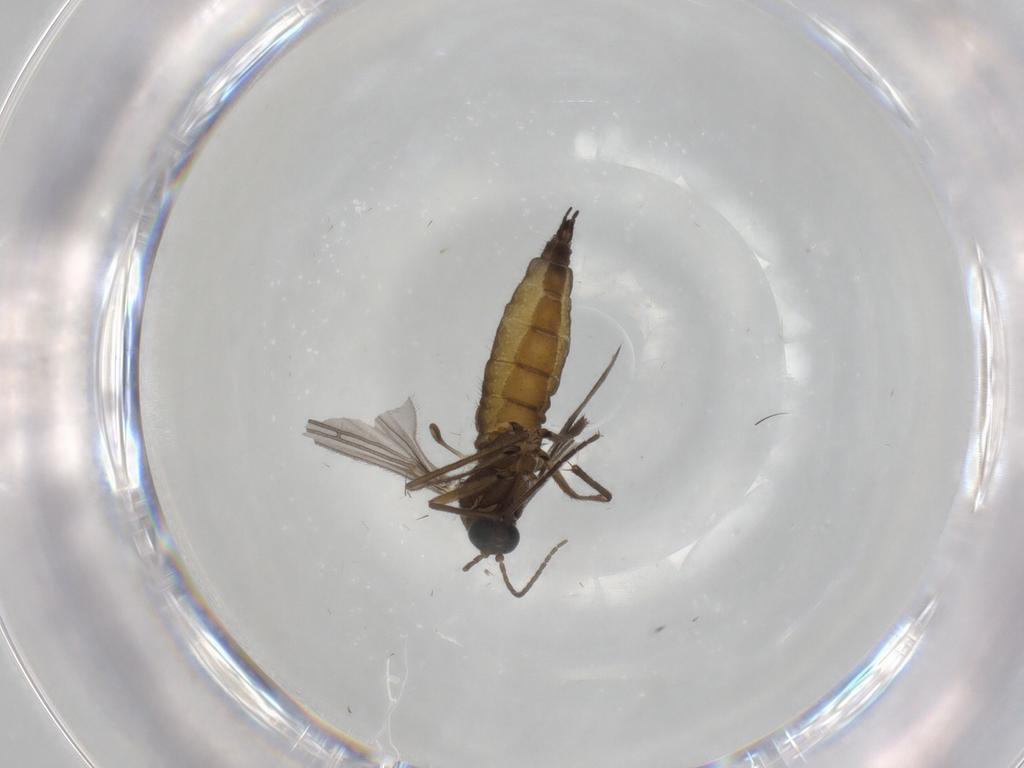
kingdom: Animalia
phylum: Arthropoda
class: Insecta
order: Diptera
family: Sciaridae
